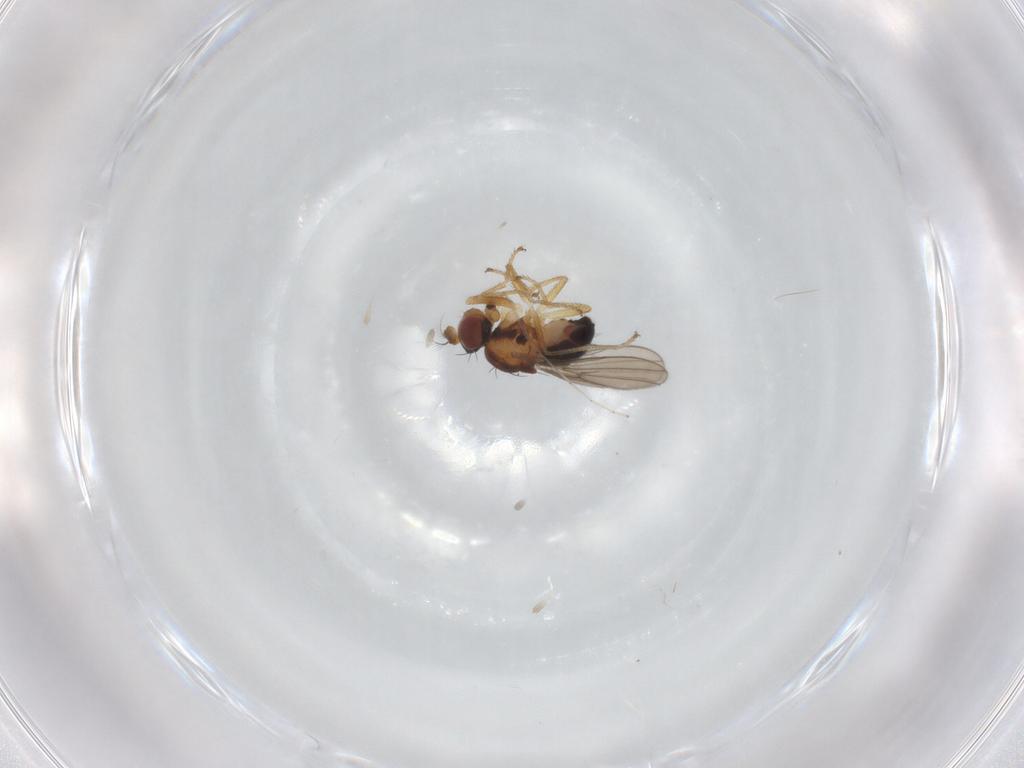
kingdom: Animalia
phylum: Arthropoda
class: Insecta
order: Diptera
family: Ephydridae
